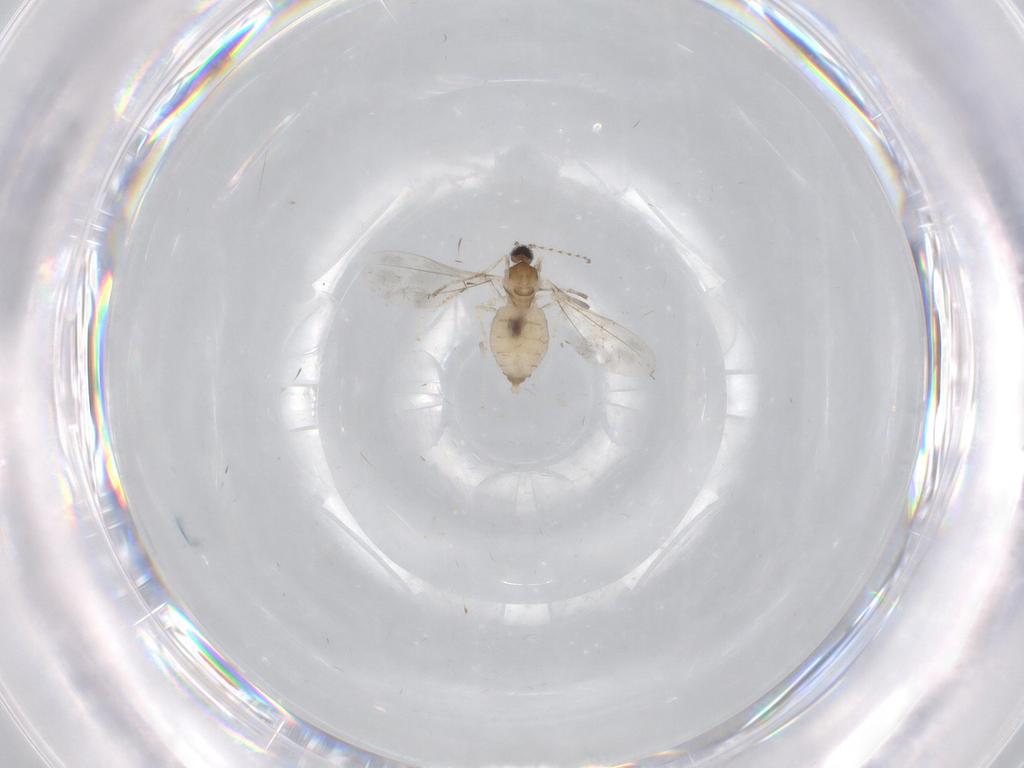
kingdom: Animalia
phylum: Arthropoda
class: Insecta
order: Diptera
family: Cecidomyiidae
